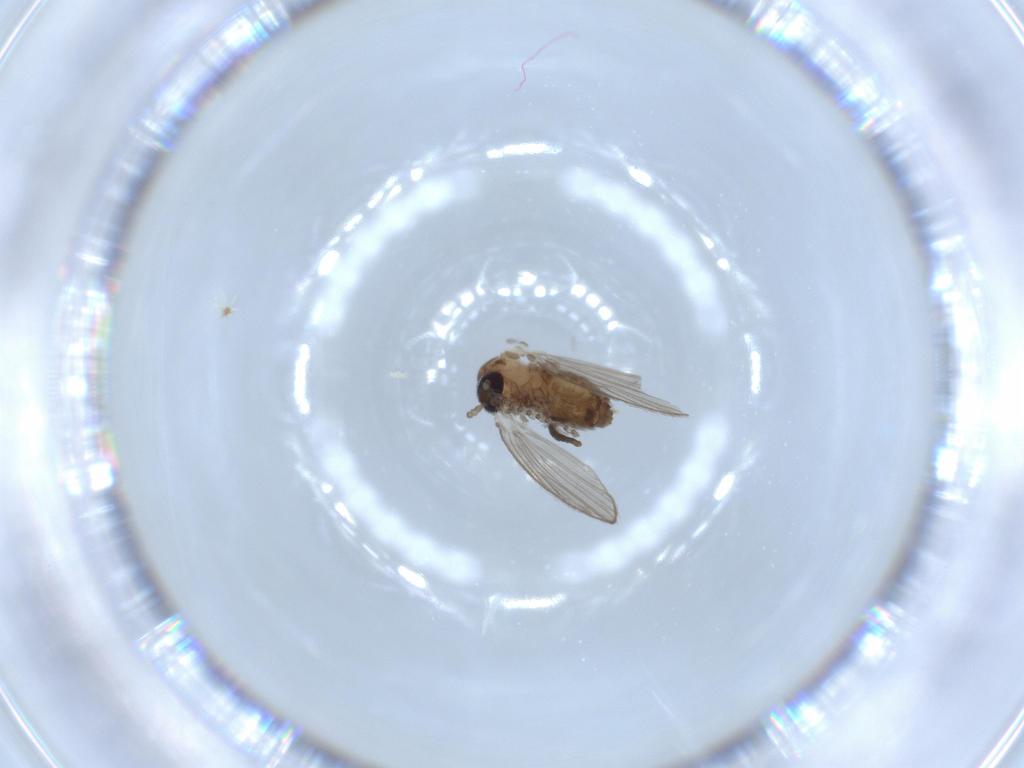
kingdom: Animalia
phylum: Arthropoda
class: Insecta
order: Diptera
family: Psychodidae
